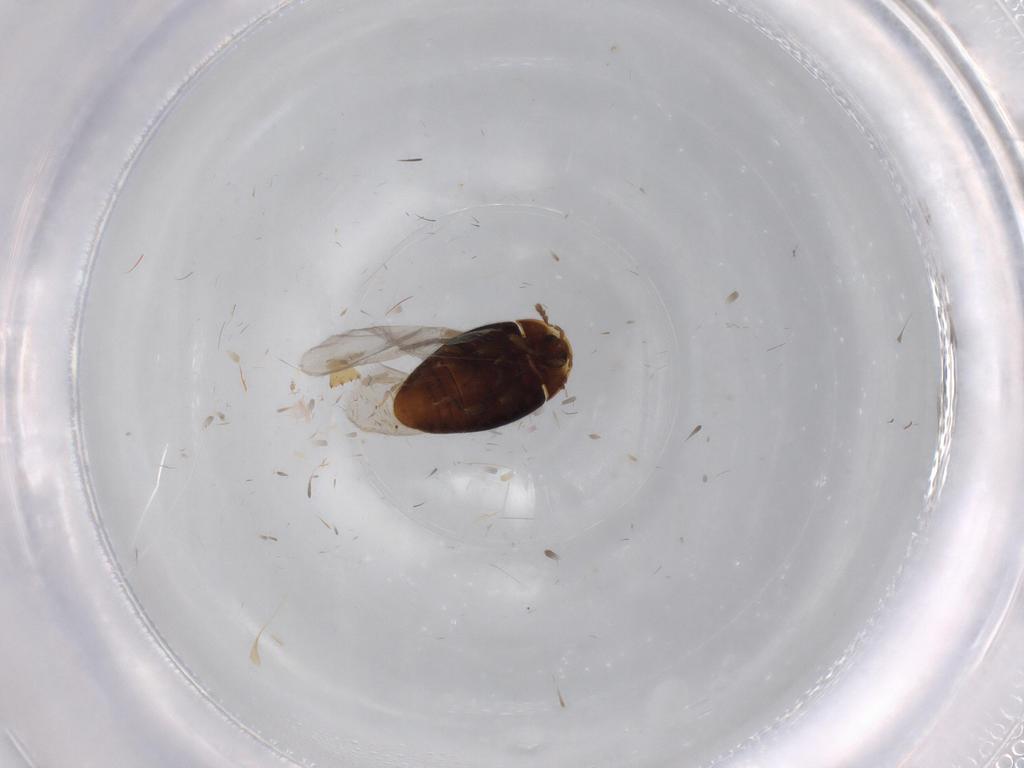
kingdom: Animalia
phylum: Arthropoda
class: Insecta
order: Coleoptera
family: Corylophidae
